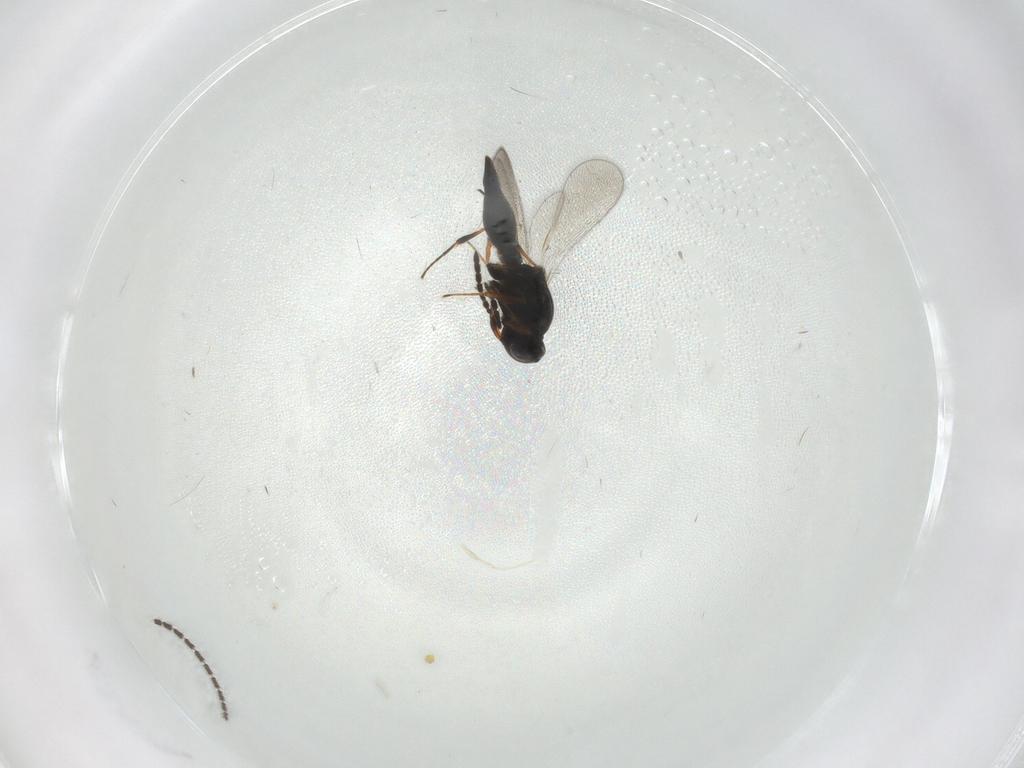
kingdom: Animalia
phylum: Arthropoda
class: Insecta
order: Diptera
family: Sciaridae
